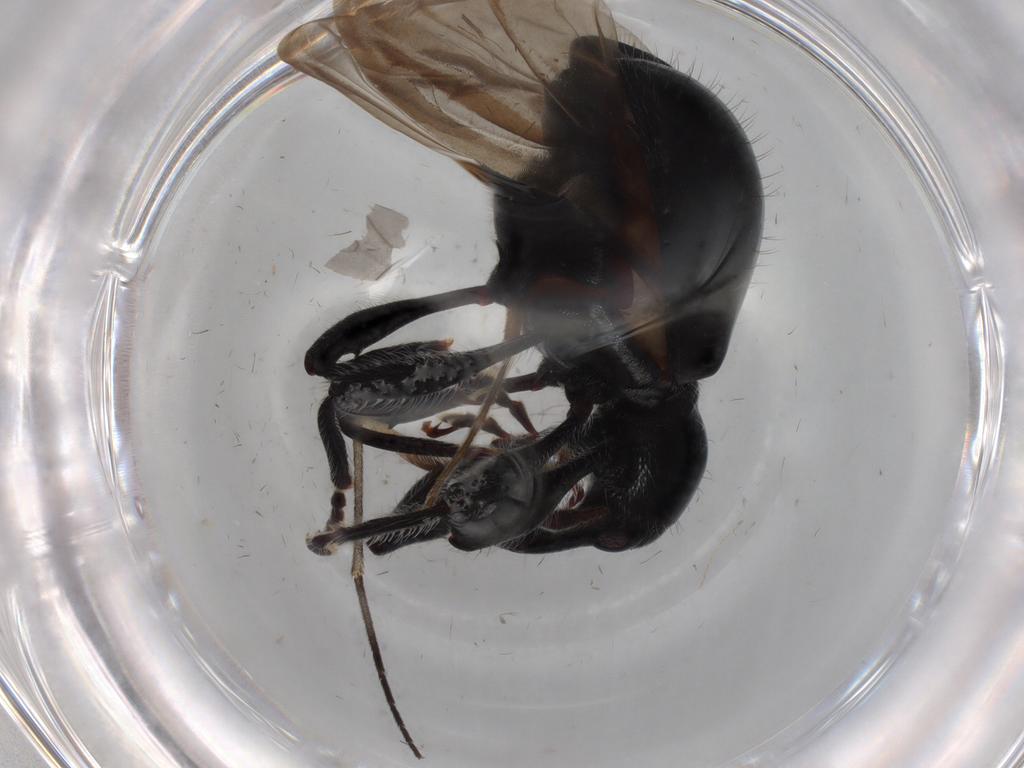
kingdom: Animalia
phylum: Arthropoda
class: Insecta
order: Coleoptera
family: Curculionidae
